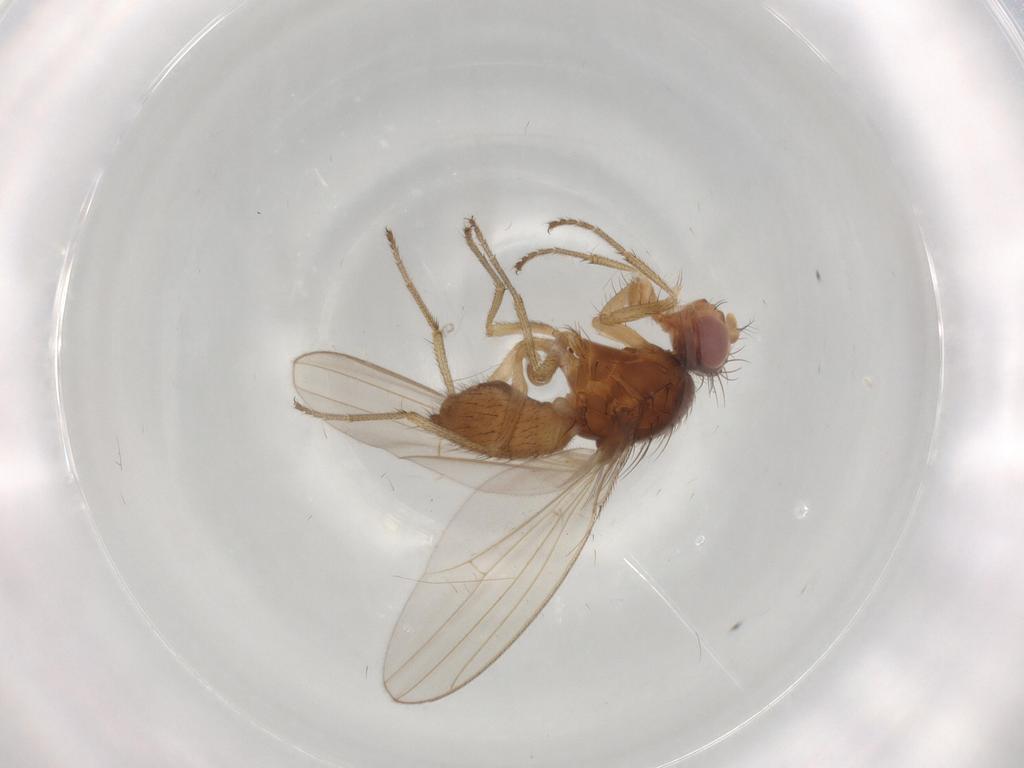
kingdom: Animalia
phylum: Arthropoda
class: Insecta
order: Diptera
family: Drosophilidae
